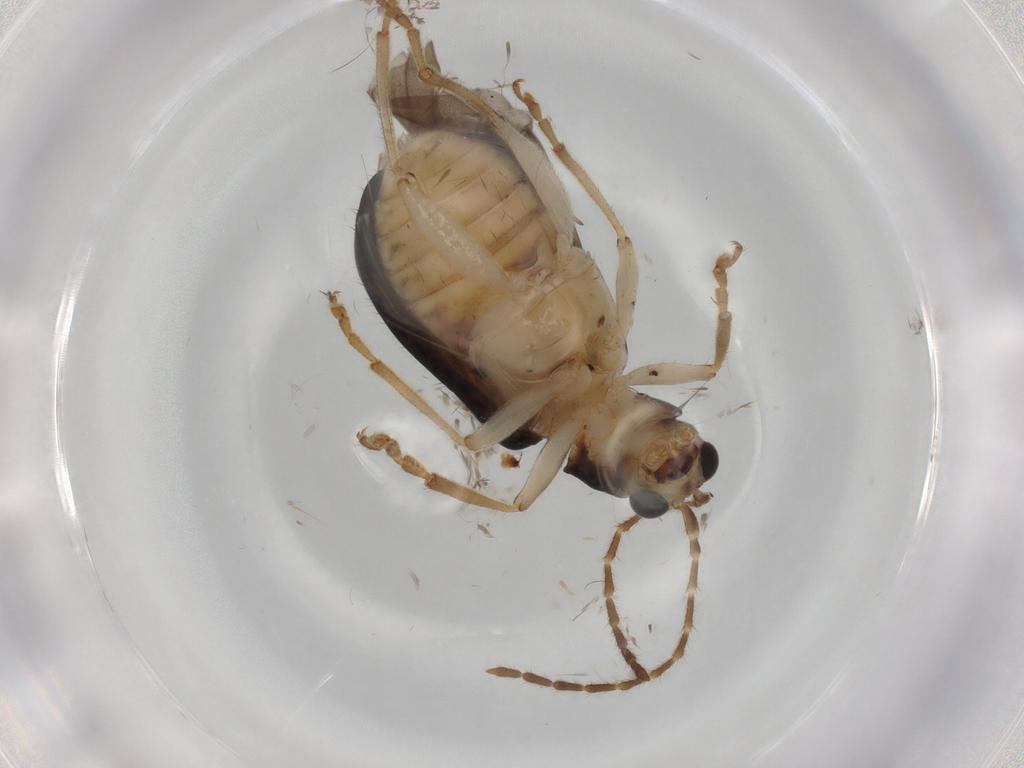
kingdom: Animalia
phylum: Arthropoda
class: Insecta
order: Coleoptera
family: Chrysomelidae
